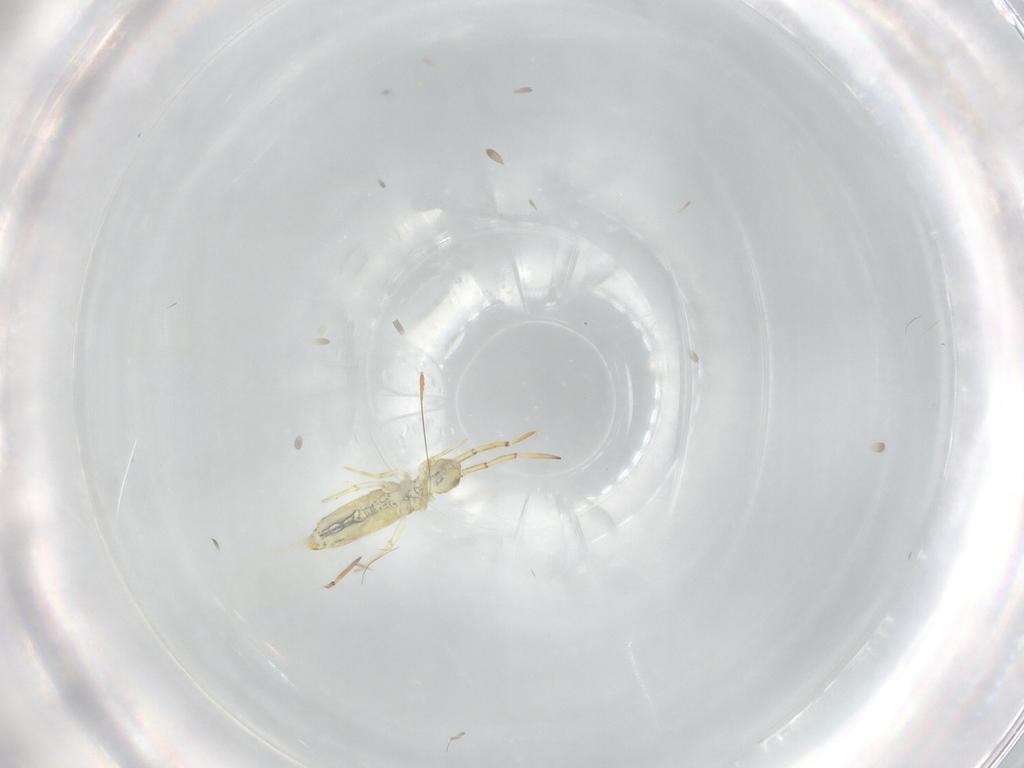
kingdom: Animalia
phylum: Arthropoda
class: Collembola
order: Entomobryomorpha
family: Paronellidae
